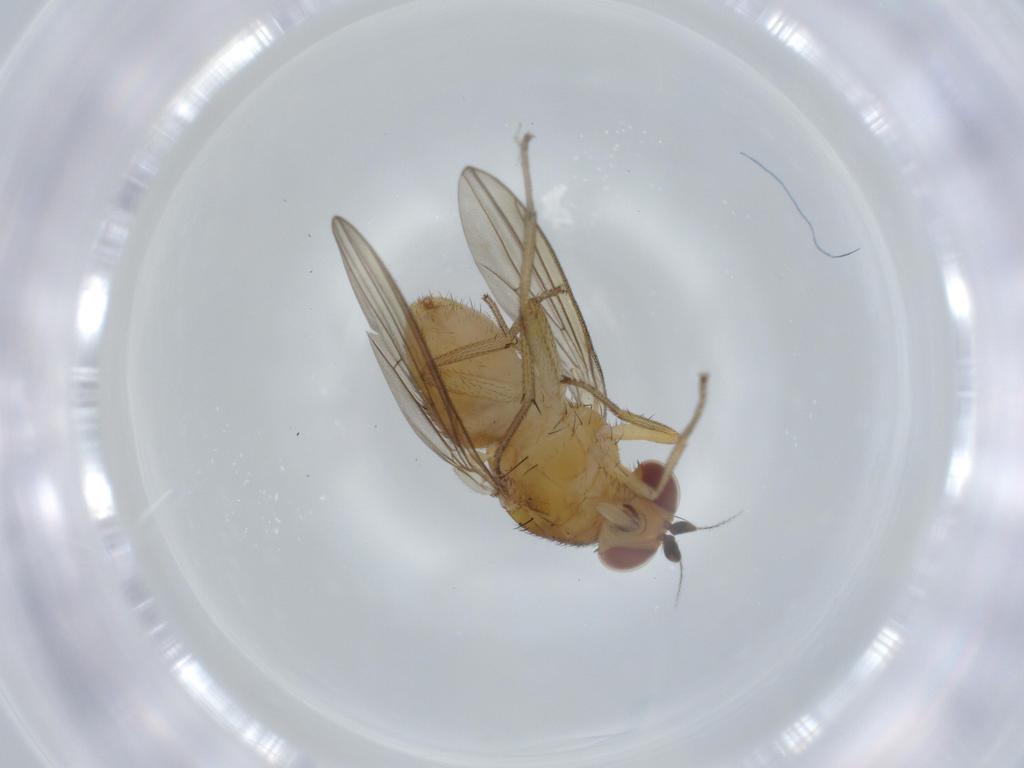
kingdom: Animalia
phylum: Arthropoda
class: Insecta
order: Diptera
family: Lauxaniidae
